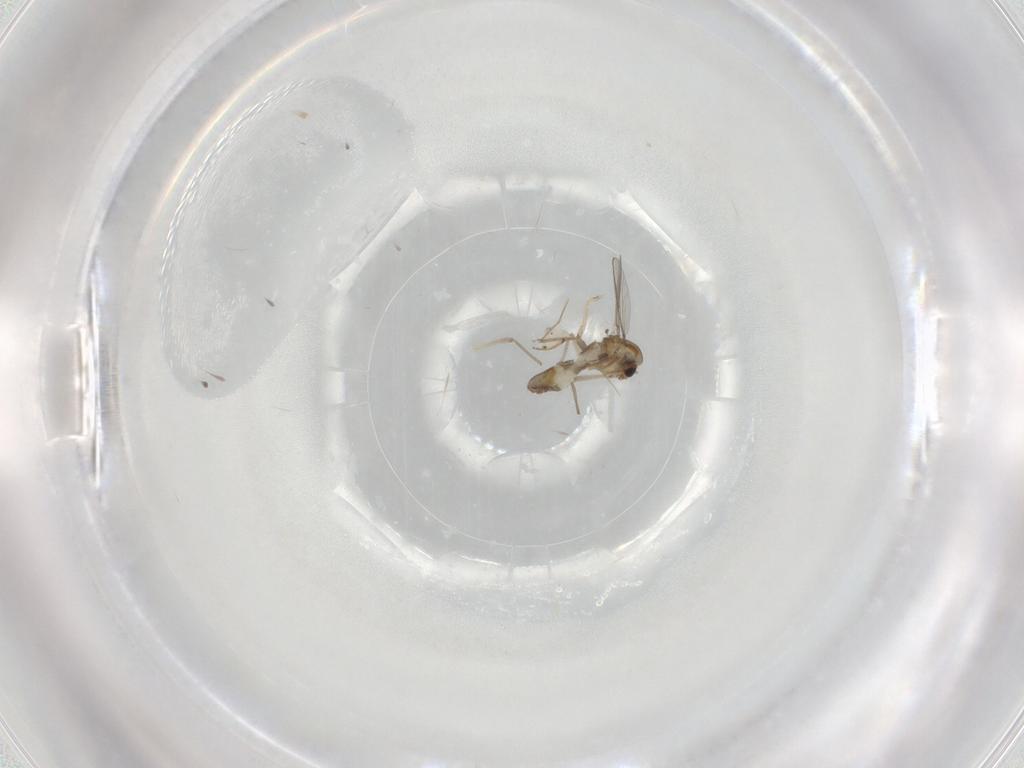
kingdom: Animalia
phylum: Arthropoda
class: Insecta
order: Diptera
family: Chironomidae
